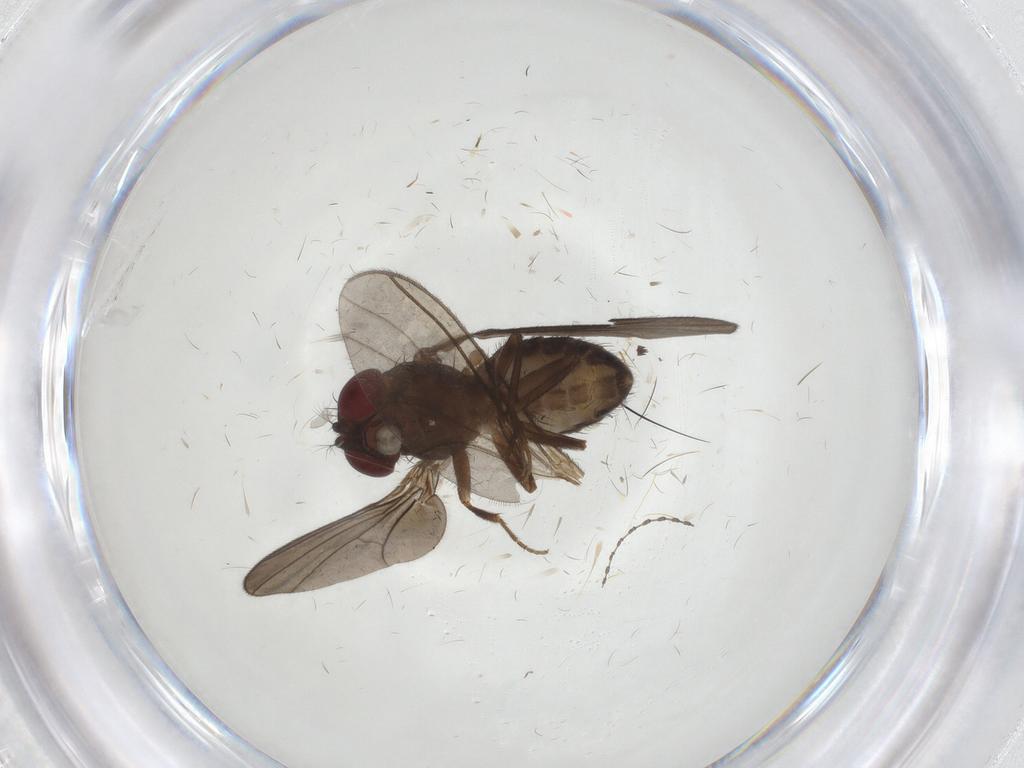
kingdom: Animalia
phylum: Arthropoda
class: Insecta
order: Diptera
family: Drosophilidae
